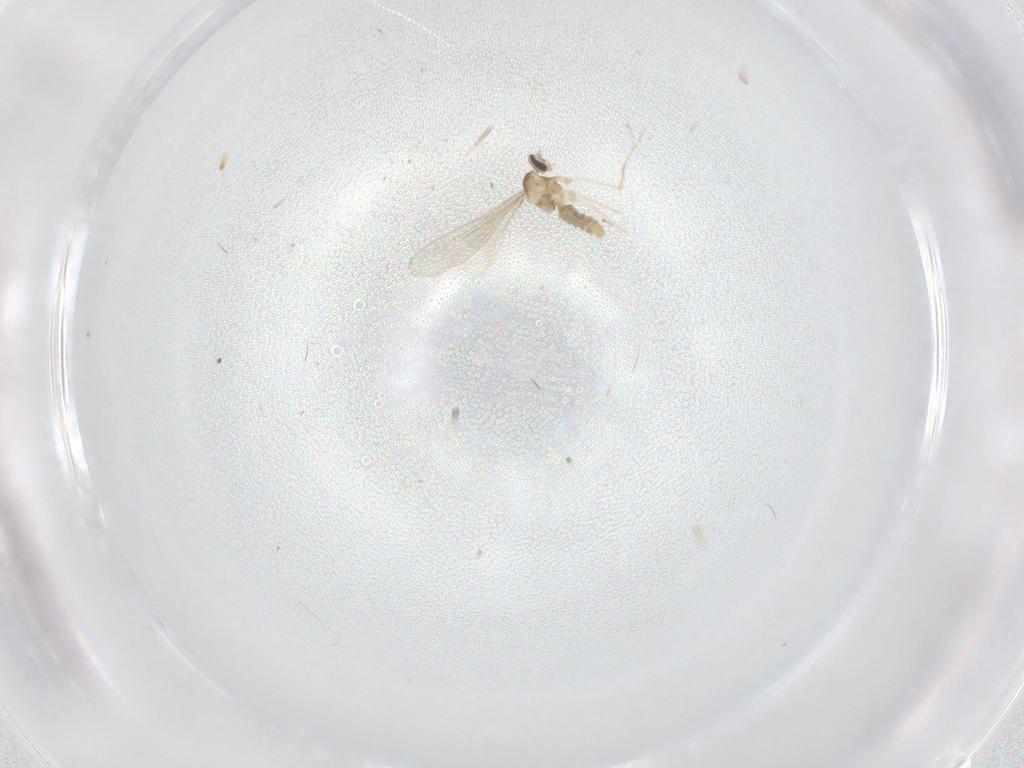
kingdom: Animalia
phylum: Arthropoda
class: Insecta
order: Diptera
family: Cecidomyiidae
